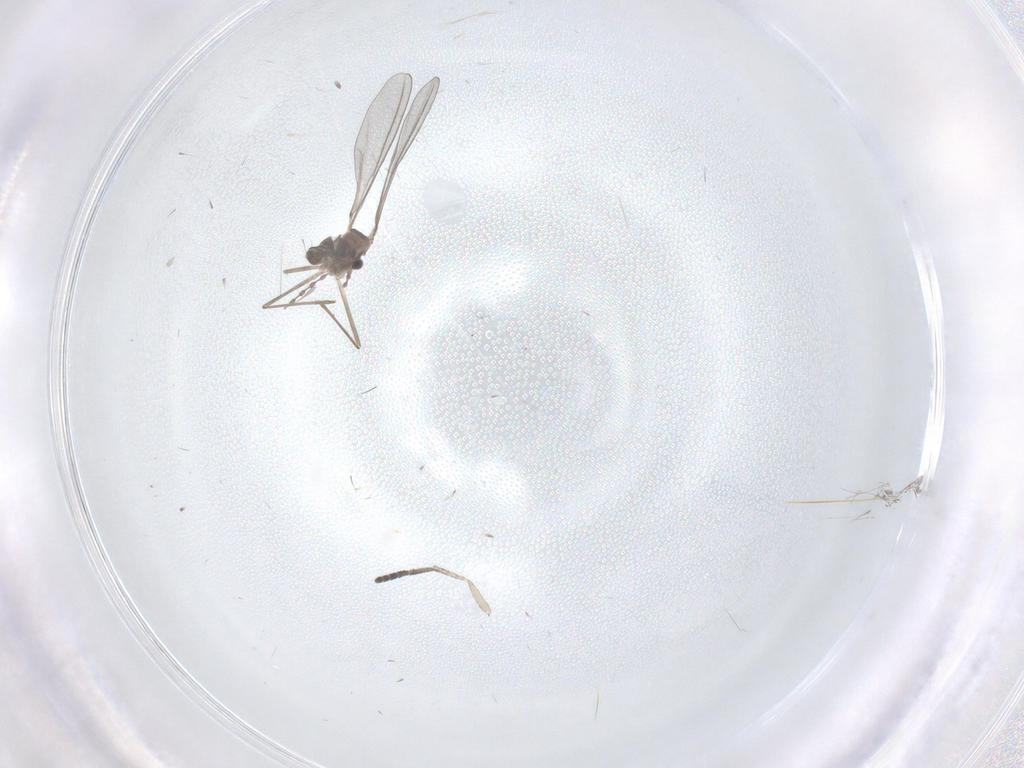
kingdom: Animalia
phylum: Arthropoda
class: Insecta
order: Diptera
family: Cecidomyiidae
